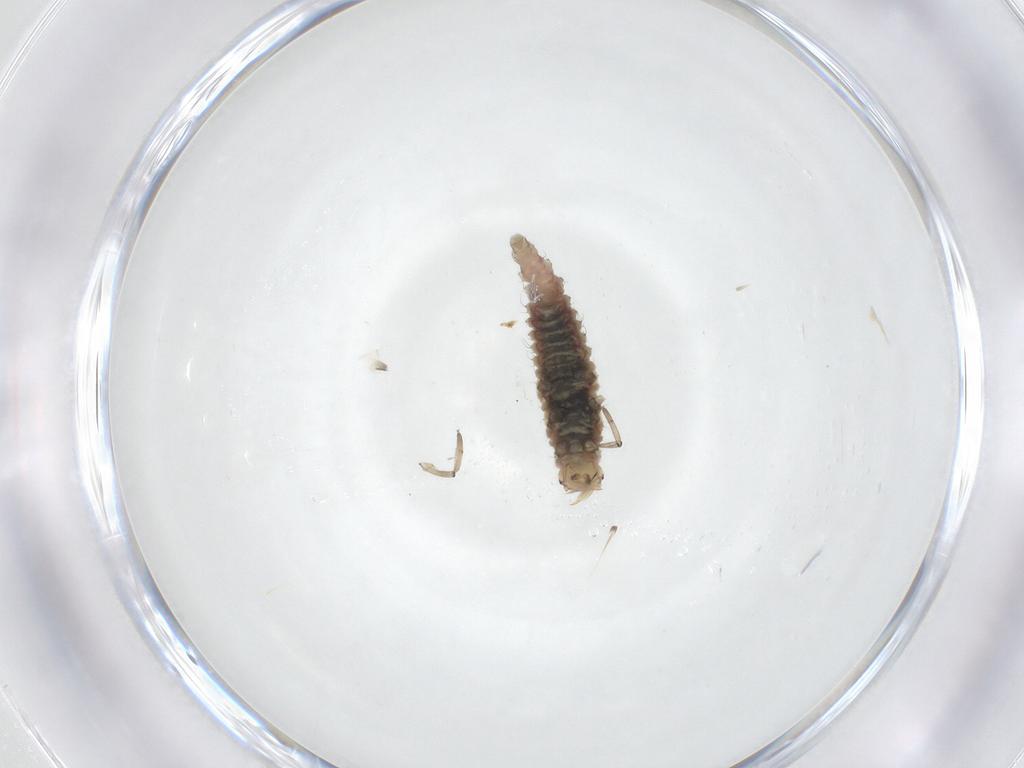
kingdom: Animalia
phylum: Arthropoda
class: Insecta
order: Neuroptera
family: Hemerobiidae
